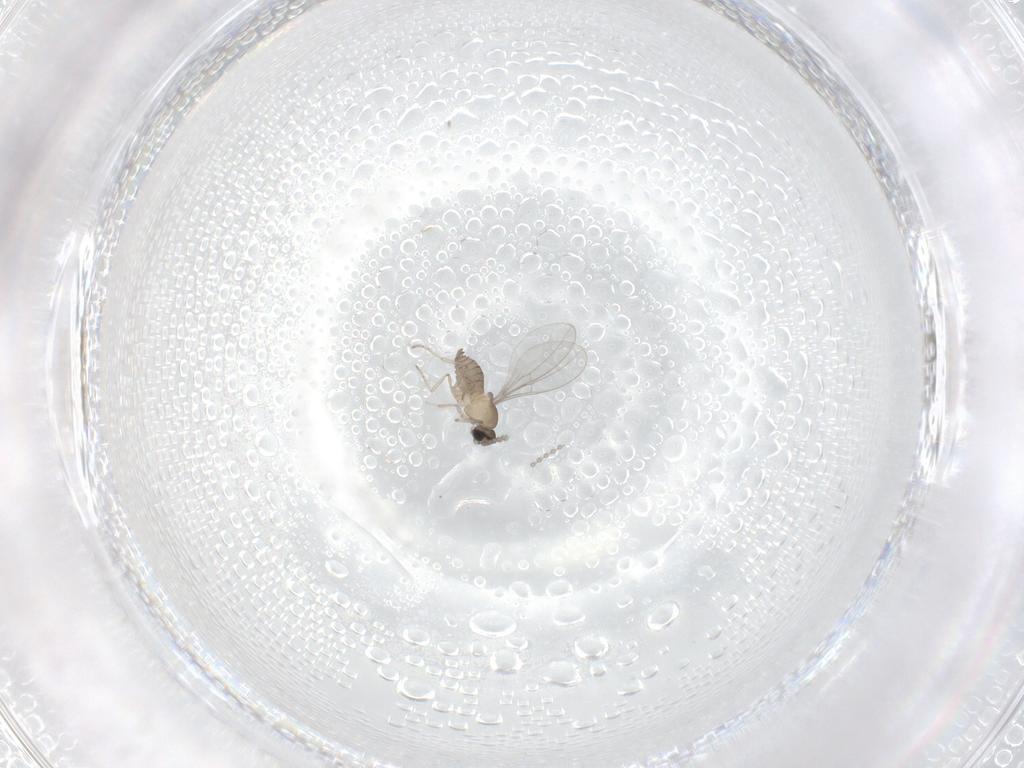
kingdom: Animalia
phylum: Arthropoda
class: Insecta
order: Diptera
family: Cecidomyiidae
